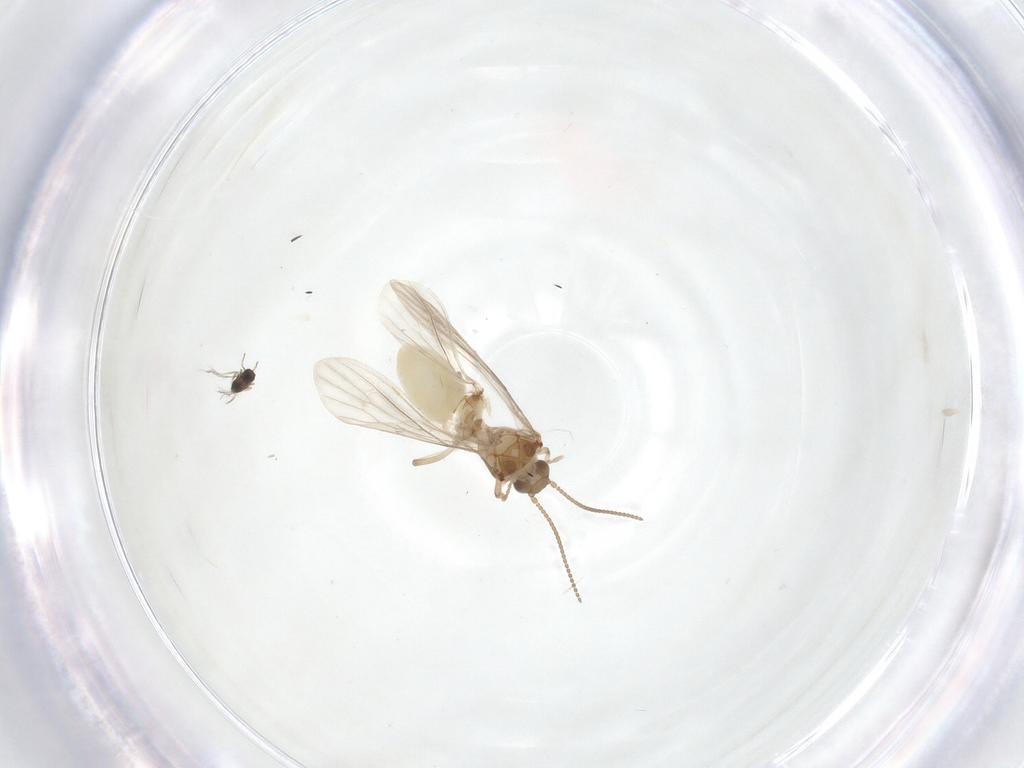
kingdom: Animalia
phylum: Arthropoda
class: Insecta
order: Neuroptera
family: Coniopterygidae
